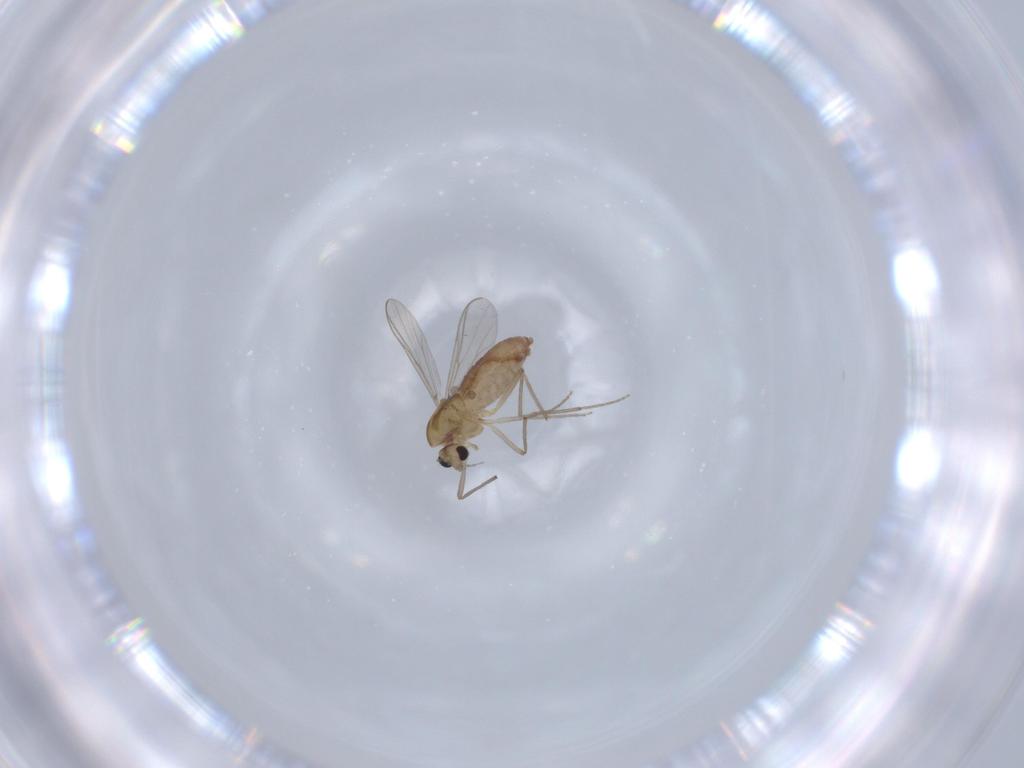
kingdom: Animalia
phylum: Arthropoda
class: Insecta
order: Diptera
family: Chironomidae
